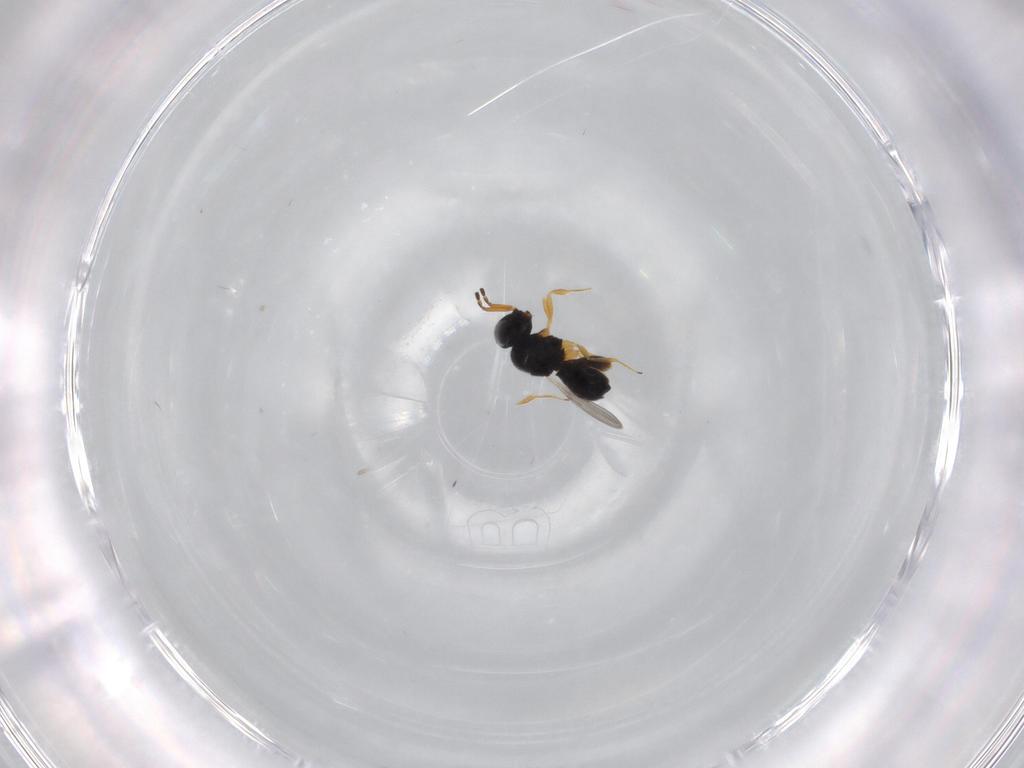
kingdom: Animalia
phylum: Arthropoda
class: Insecta
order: Hymenoptera
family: Scelionidae
